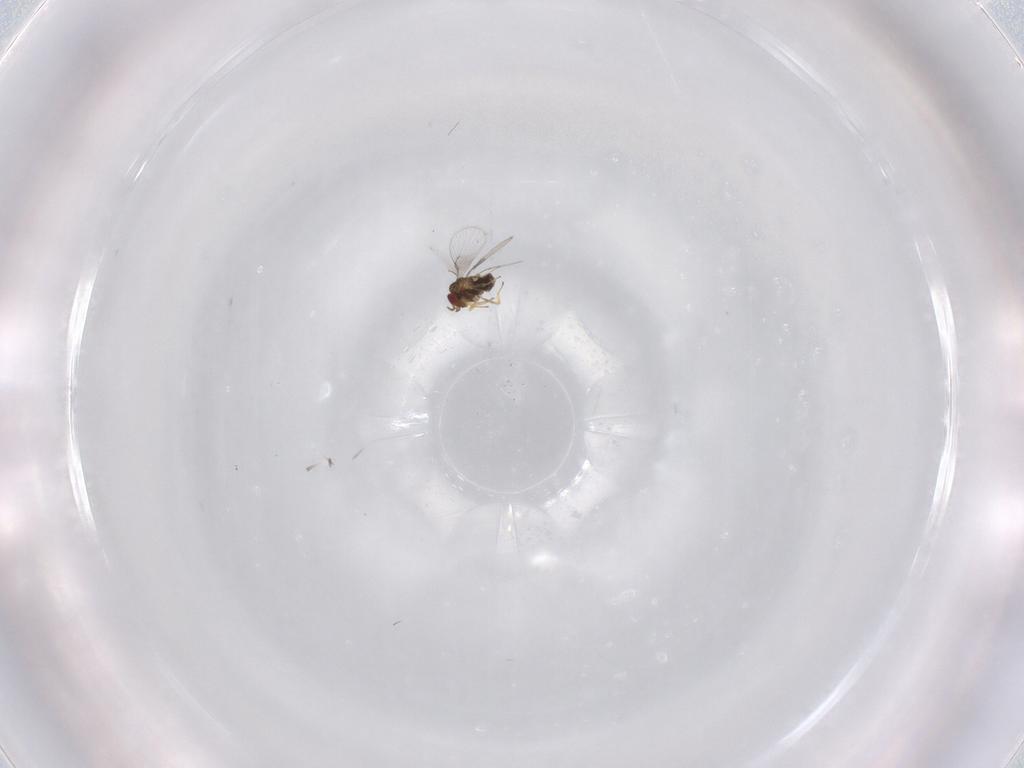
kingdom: Animalia
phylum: Arthropoda
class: Insecta
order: Hymenoptera
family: Trichogrammatidae
